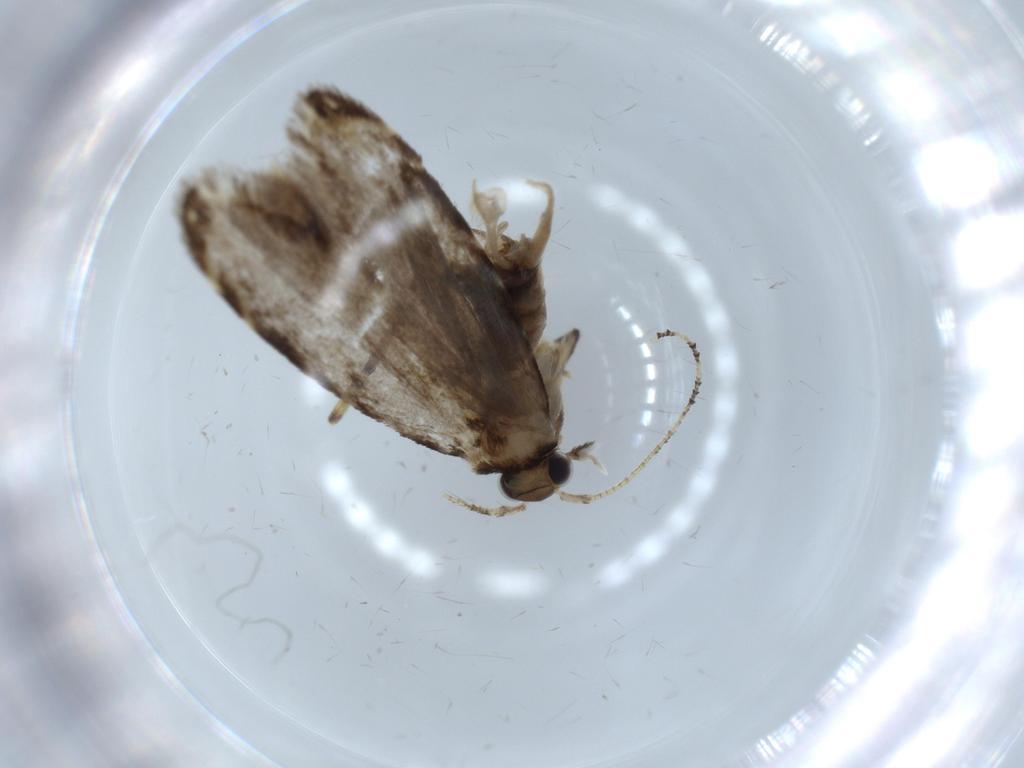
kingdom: Animalia
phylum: Arthropoda
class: Insecta
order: Lepidoptera
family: Tineidae
